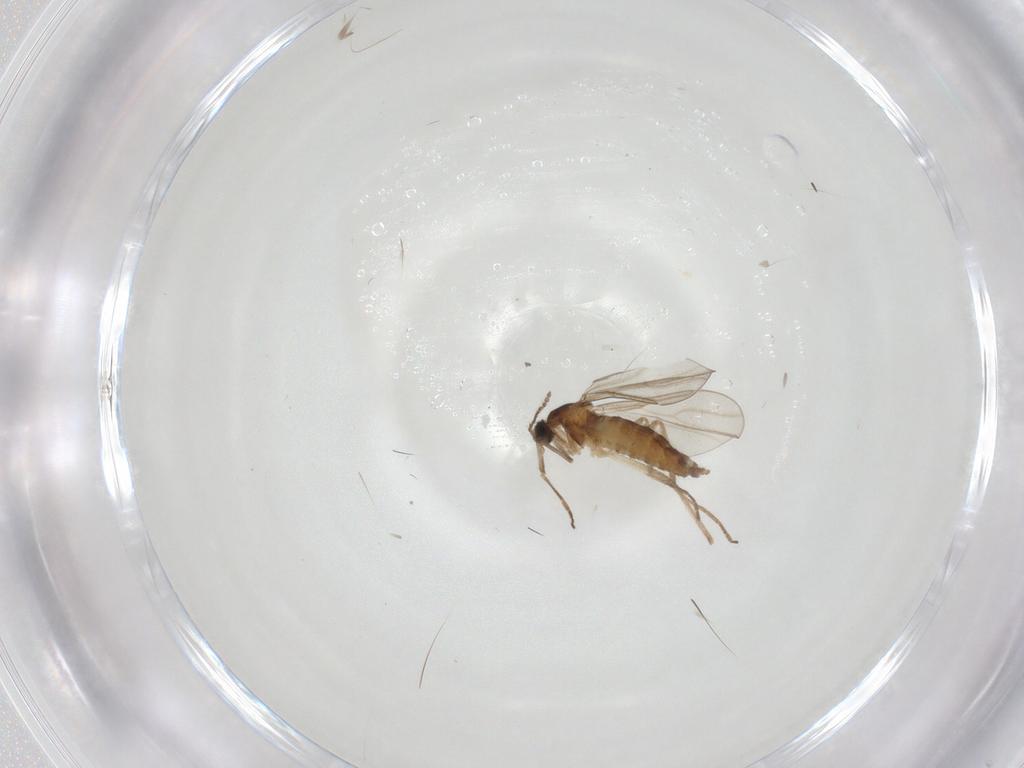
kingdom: Animalia
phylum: Arthropoda
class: Insecta
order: Diptera
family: Cecidomyiidae
